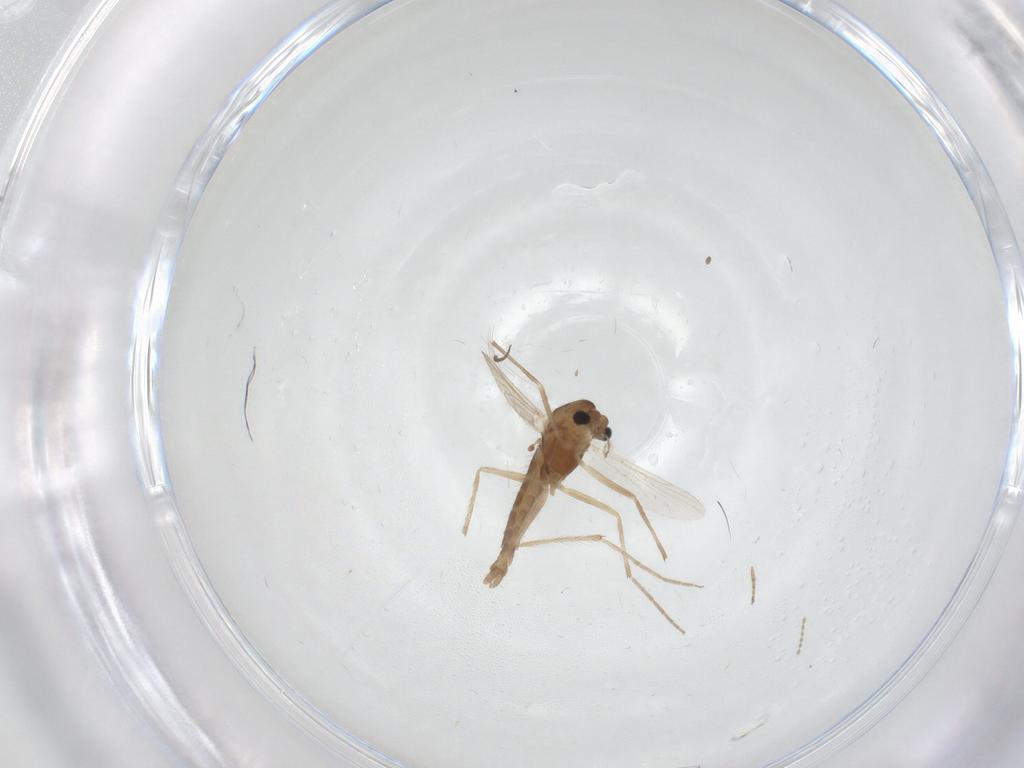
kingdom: Animalia
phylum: Arthropoda
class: Insecta
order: Diptera
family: Chironomidae
